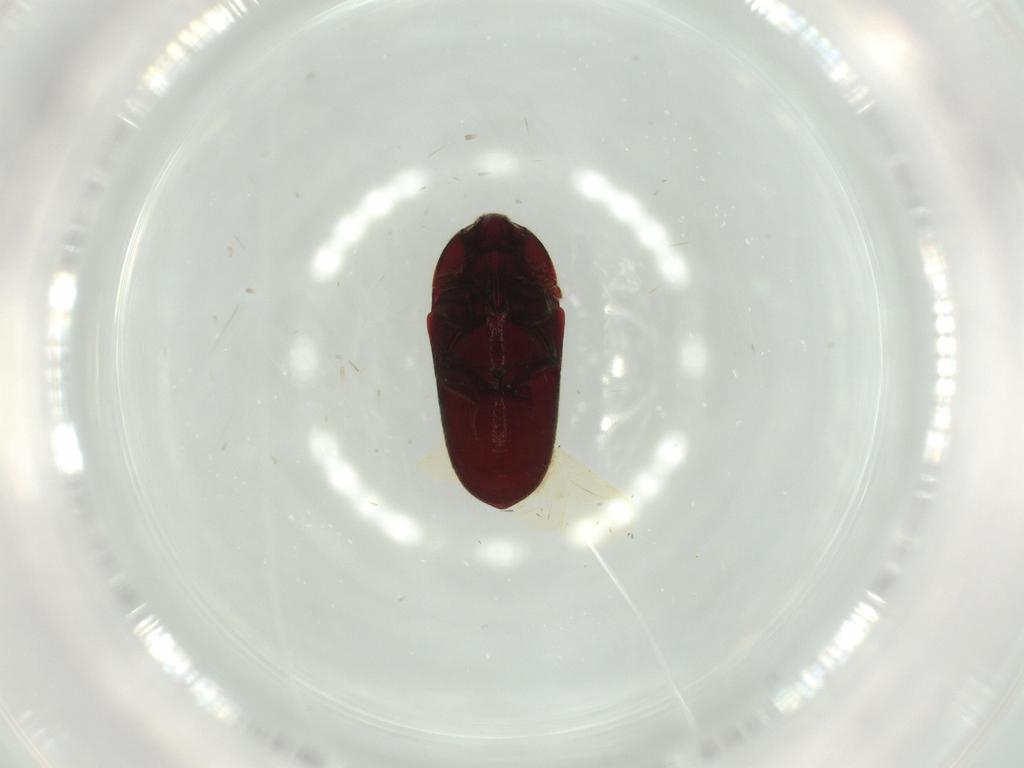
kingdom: Animalia
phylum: Arthropoda
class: Insecta
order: Coleoptera
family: Throscidae
